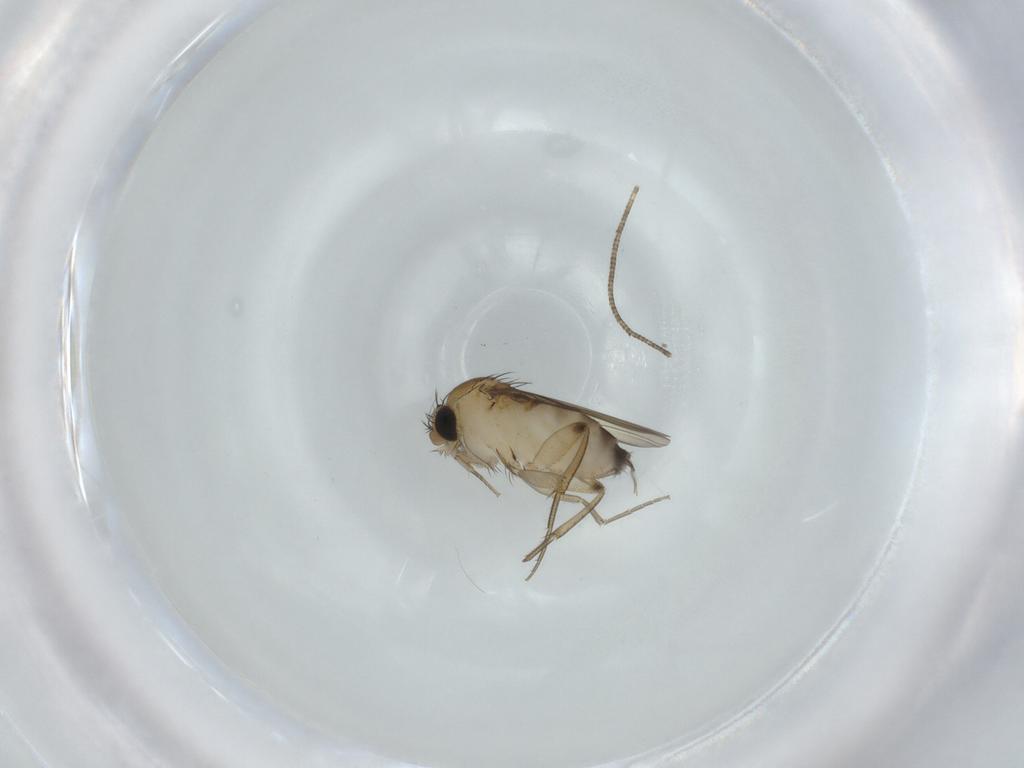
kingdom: Animalia
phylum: Arthropoda
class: Insecta
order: Diptera
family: Phoridae
